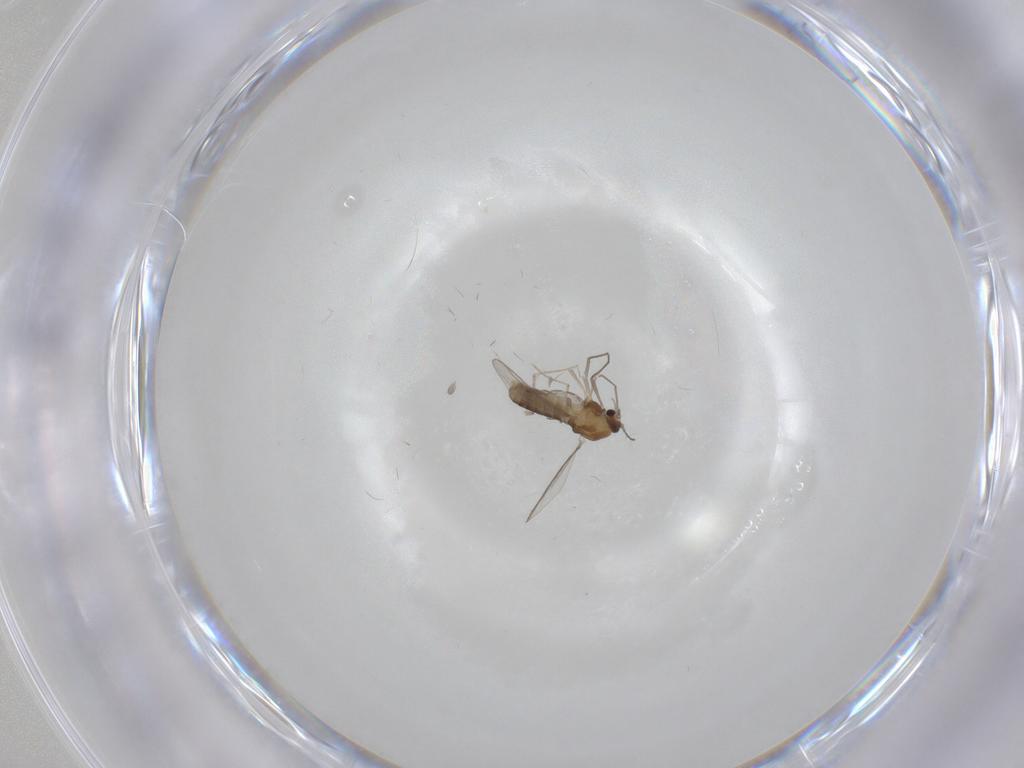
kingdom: Animalia
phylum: Arthropoda
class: Insecta
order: Diptera
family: Chironomidae
